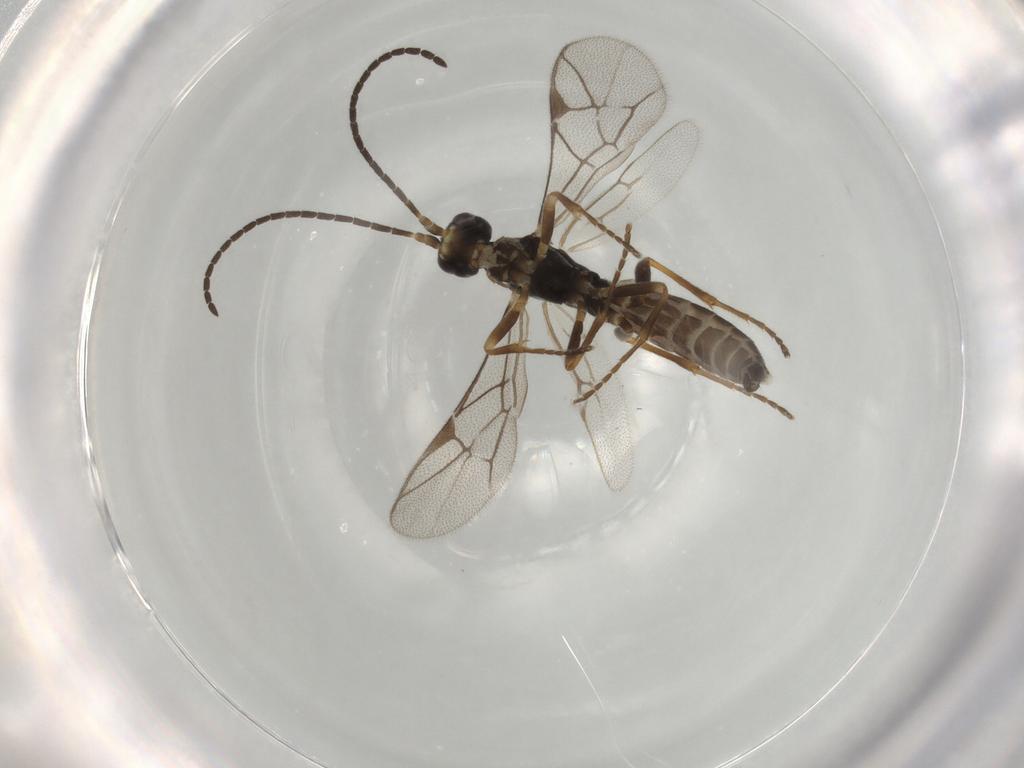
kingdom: Animalia
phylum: Arthropoda
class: Insecta
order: Hymenoptera
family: Ichneumonidae
